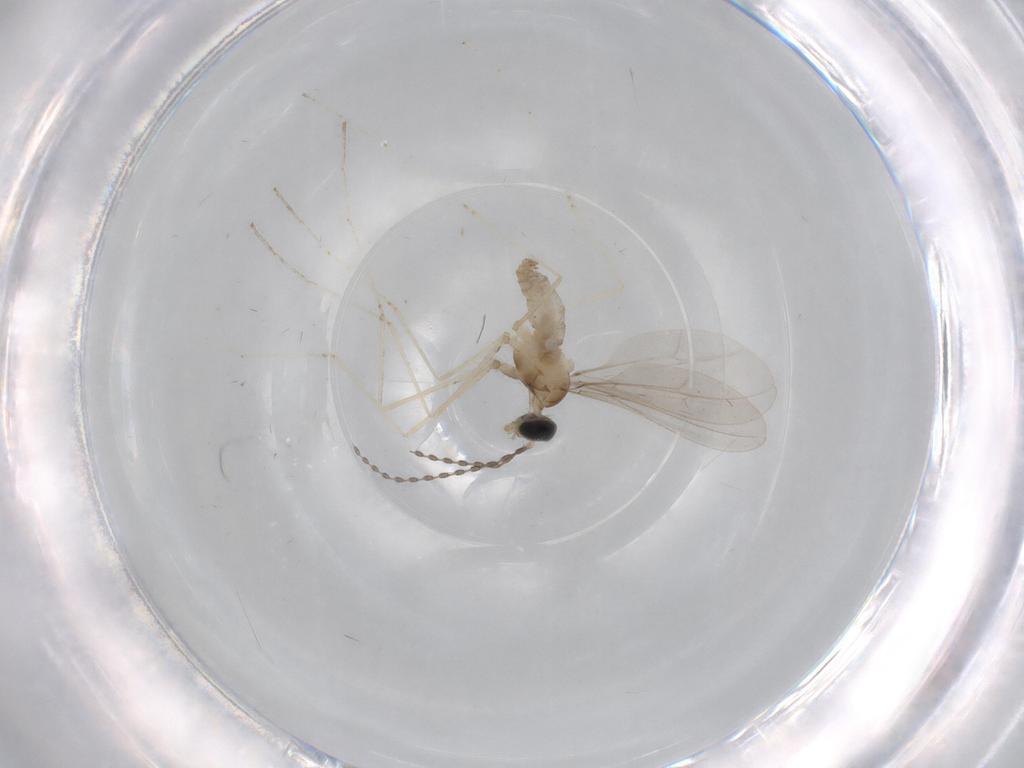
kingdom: Animalia
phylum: Arthropoda
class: Insecta
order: Diptera
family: Cecidomyiidae
